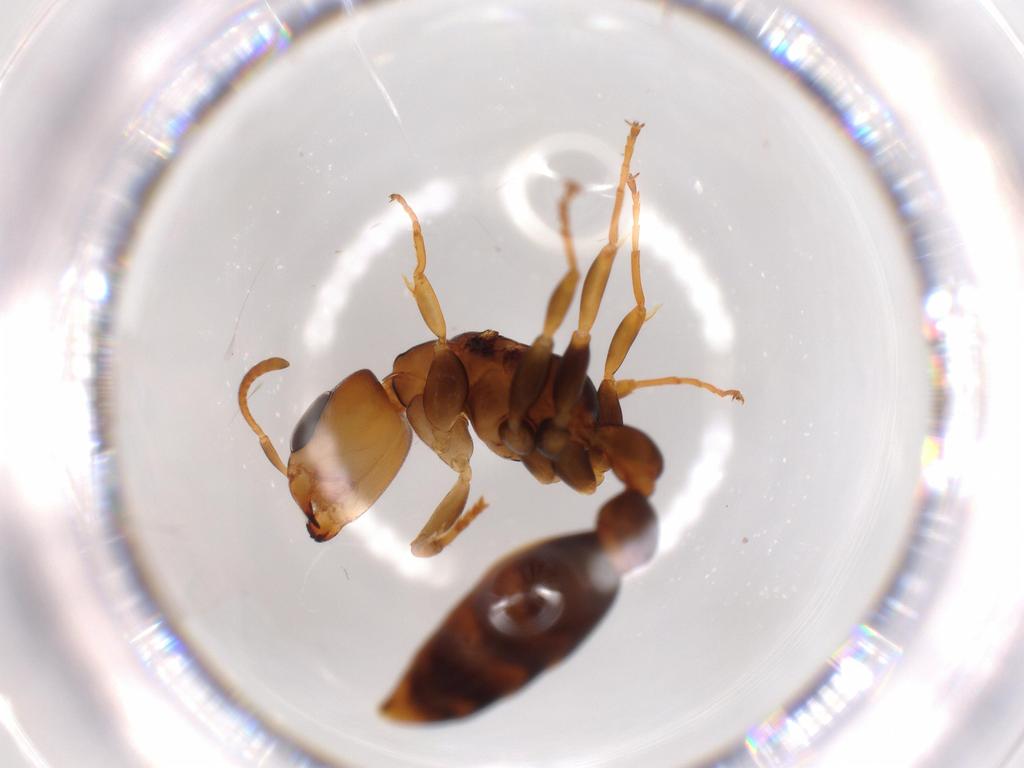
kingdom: Animalia
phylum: Arthropoda
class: Insecta
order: Hymenoptera
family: Formicidae
